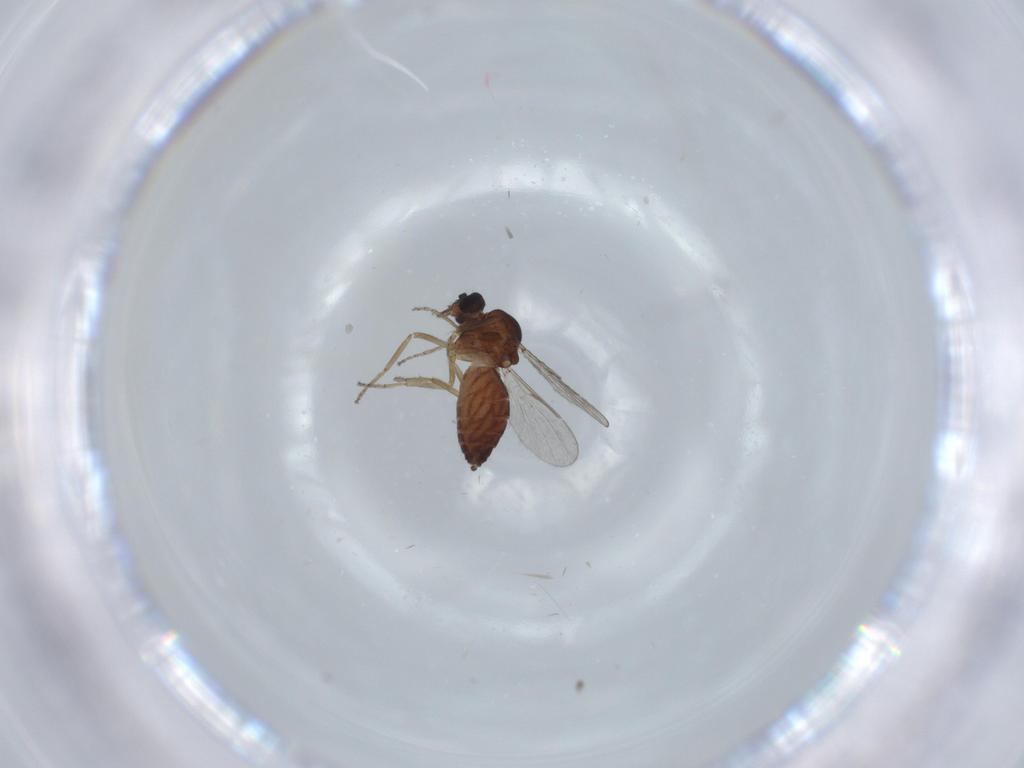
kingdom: Animalia
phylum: Arthropoda
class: Insecta
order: Diptera
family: Ceratopogonidae
